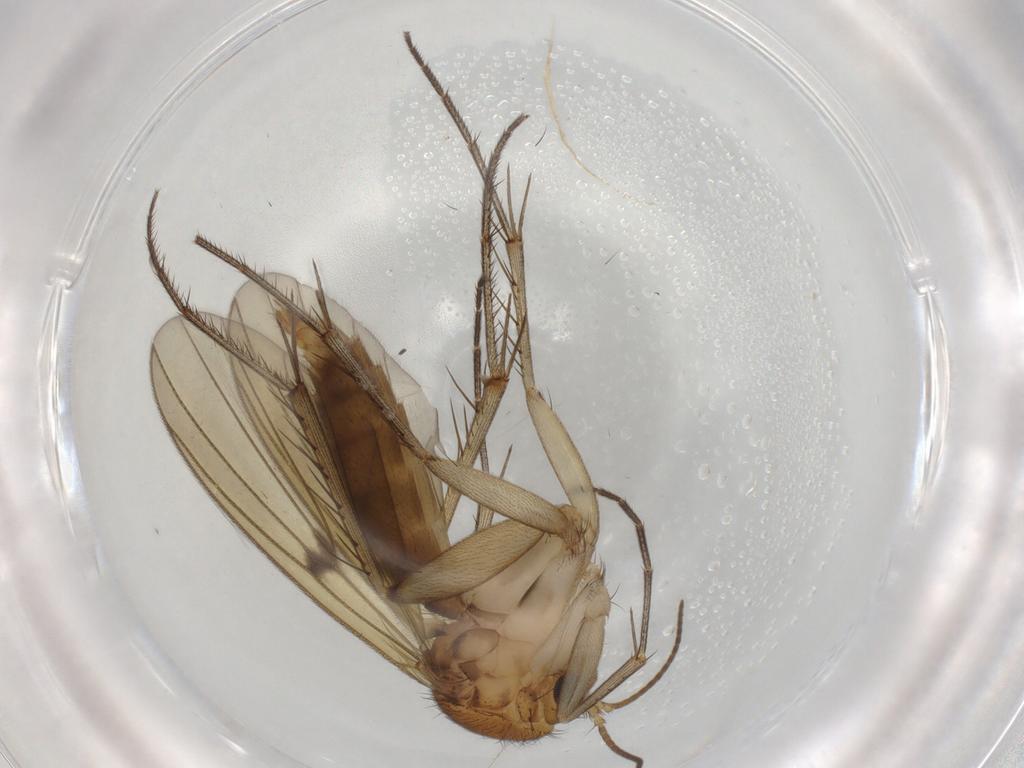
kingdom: Animalia
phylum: Arthropoda
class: Insecta
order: Diptera
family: Mycetophilidae
